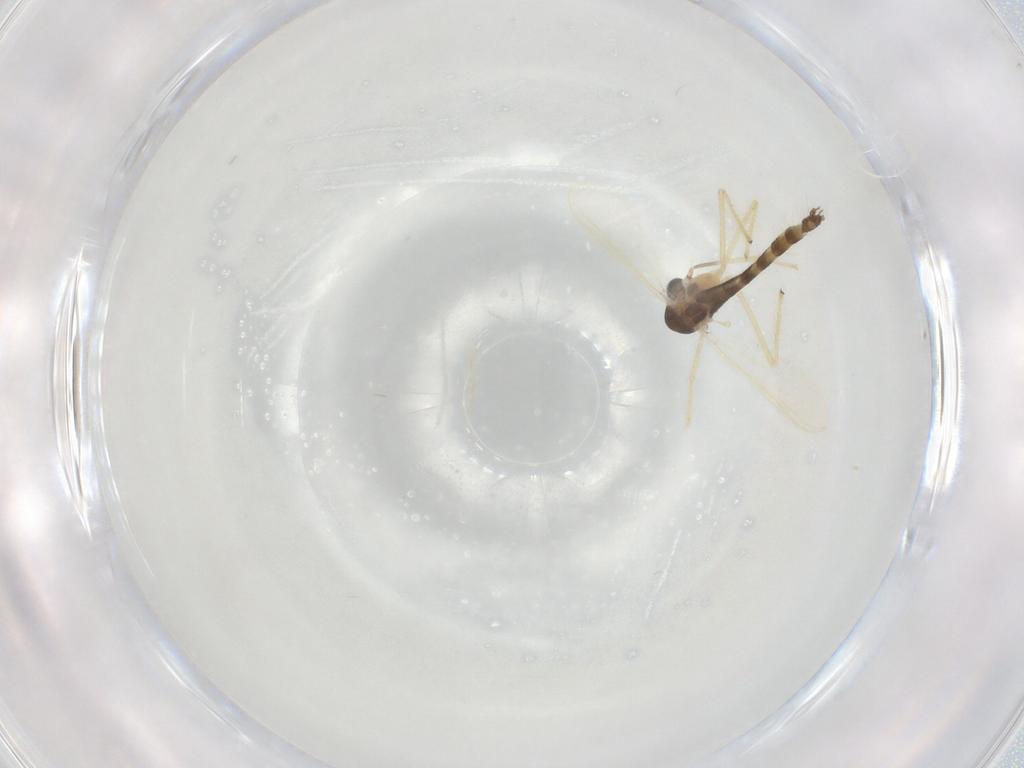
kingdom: Animalia
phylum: Arthropoda
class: Insecta
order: Diptera
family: Chironomidae
